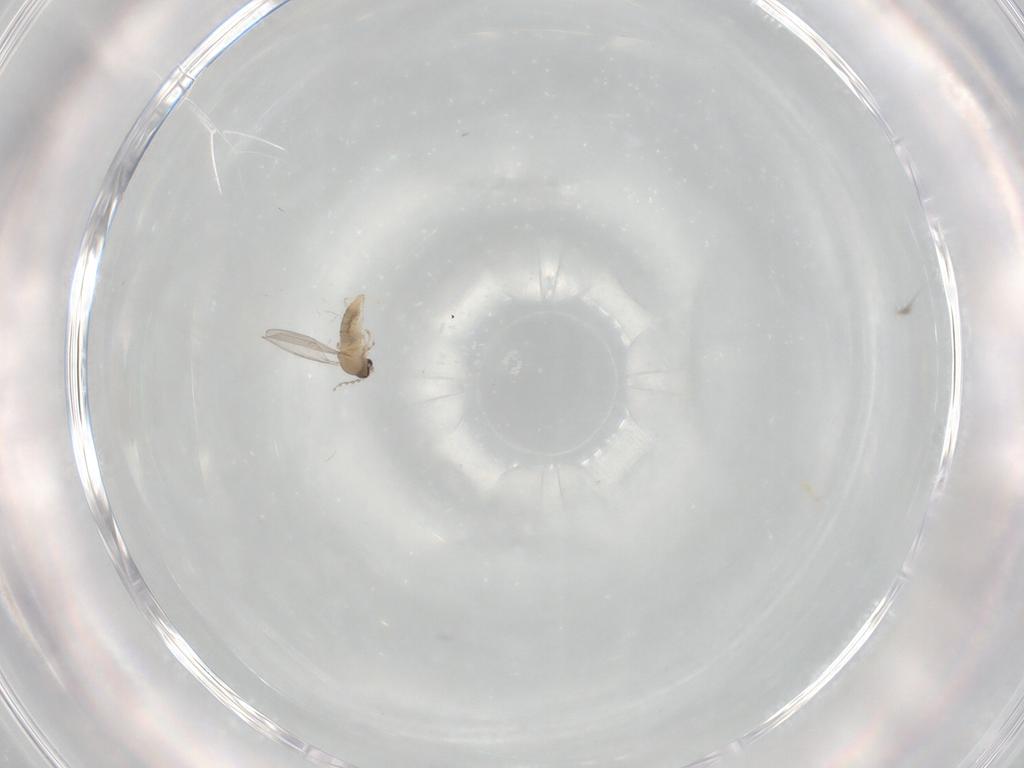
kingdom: Animalia
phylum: Arthropoda
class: Insecta
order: Diptera
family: Cecidomyiidae
